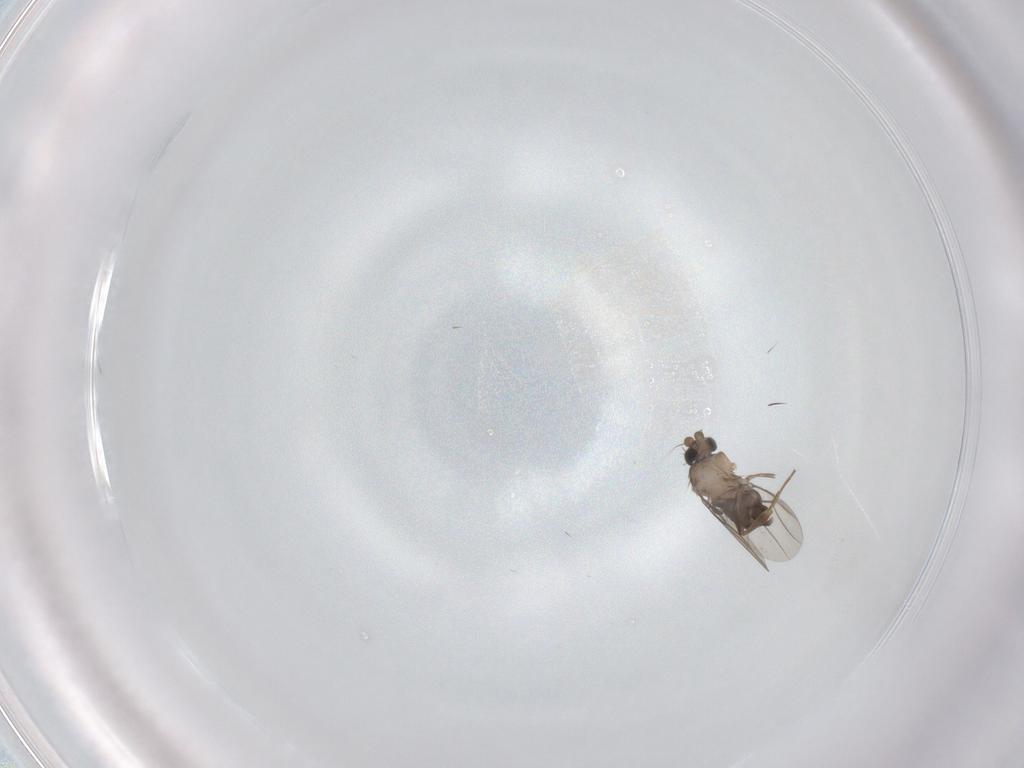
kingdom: Animalia
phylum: Arthropoda
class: Insecta
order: Diptera
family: Phoridae
